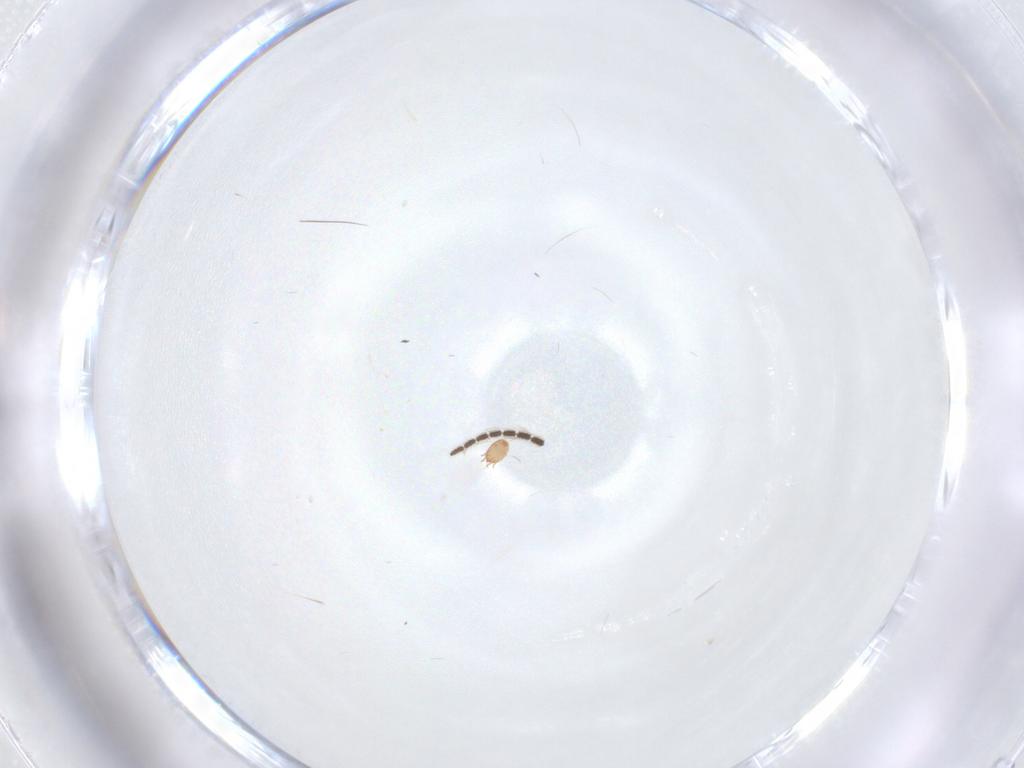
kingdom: Animalia
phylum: Arthropoda
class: Insecta
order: Diptera
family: Mycetophilidae
